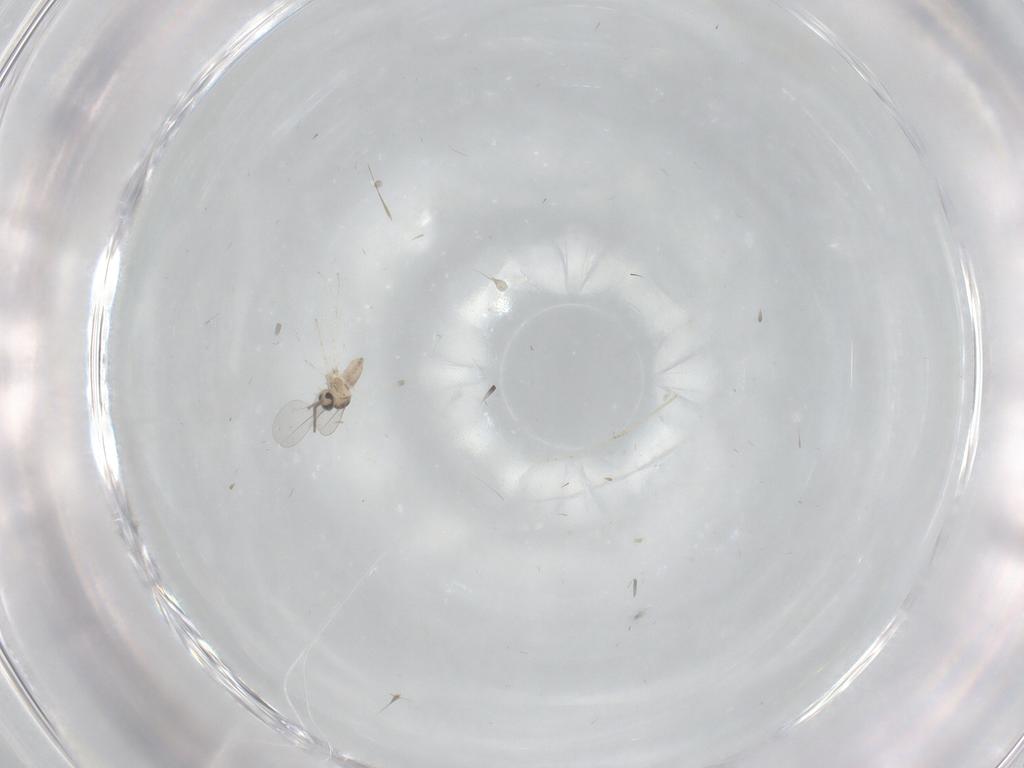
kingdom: Animalia
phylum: Arthropoda
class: Insecta
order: Diptera
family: Cecidomyiidae
